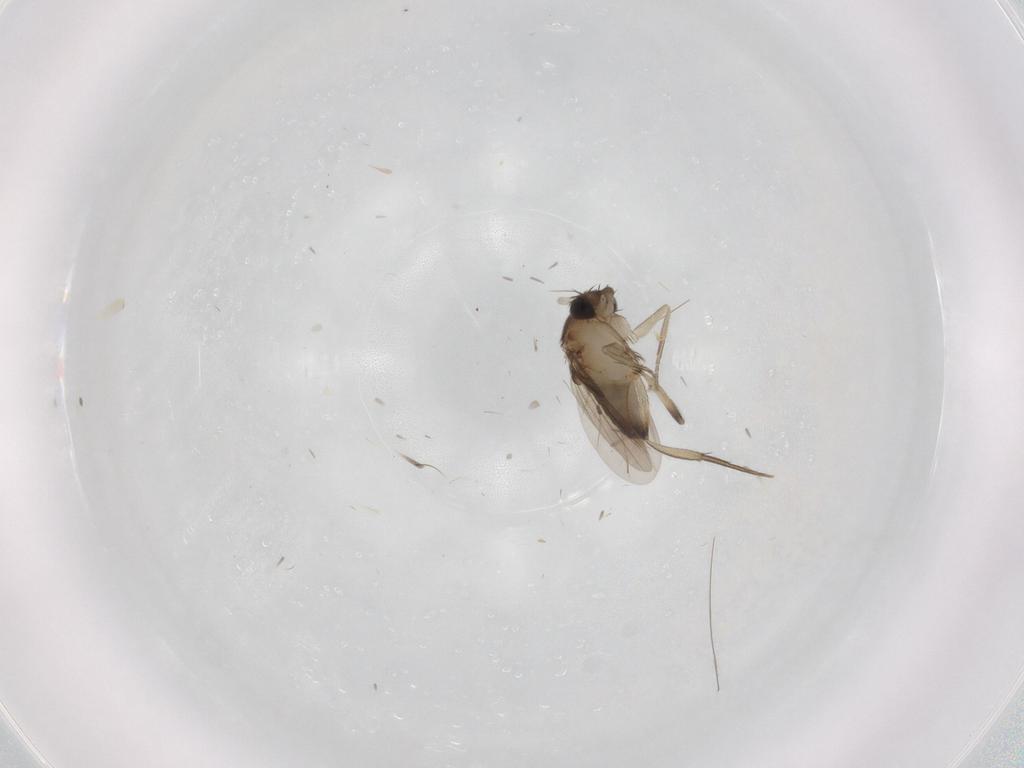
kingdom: Animalia
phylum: Arthropoda
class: Insecta
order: Diptera
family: Phoridae
